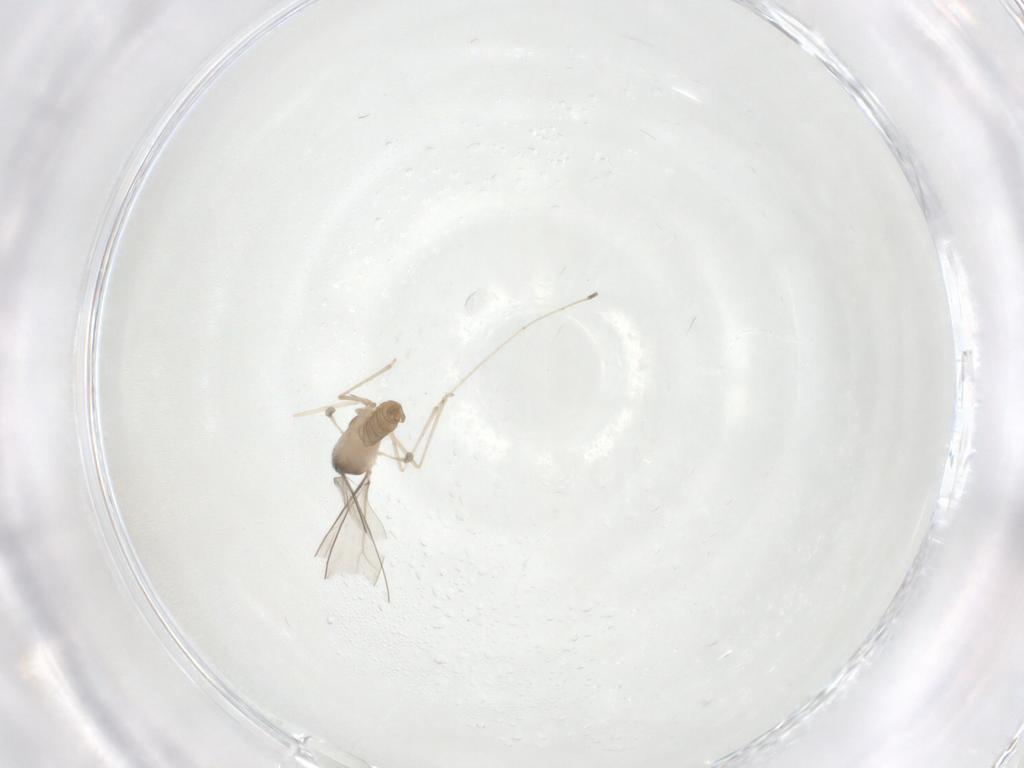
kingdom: Animalia
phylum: Arthropoda
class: Insecta
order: Diptera
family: Cecidomyiidae
